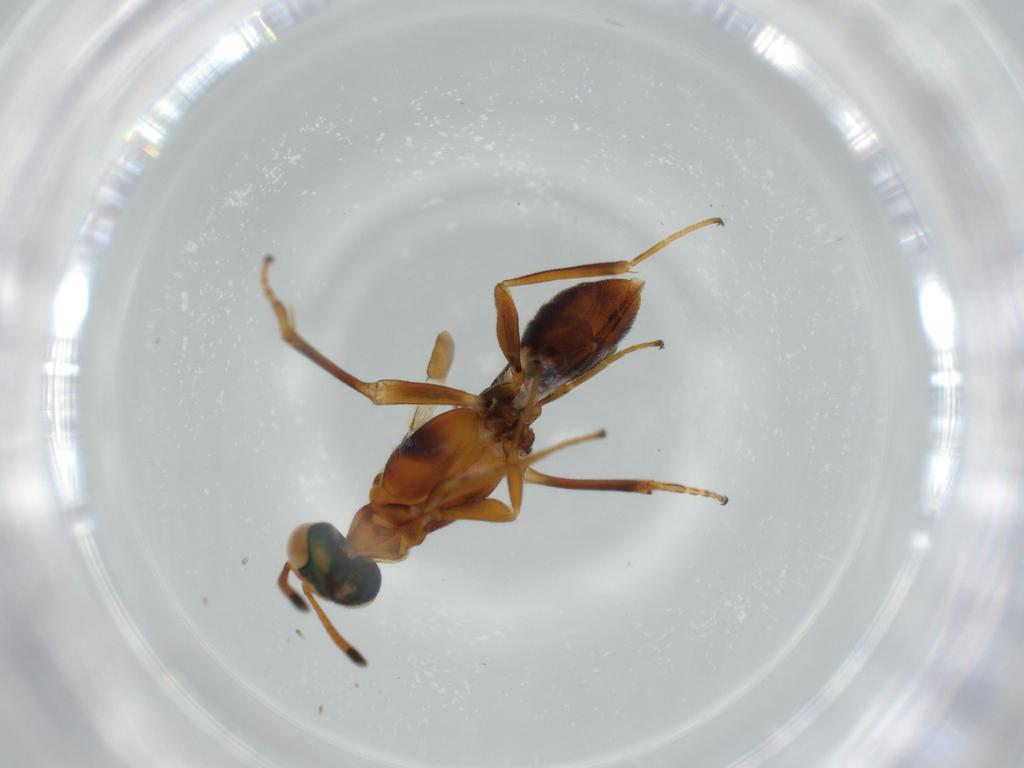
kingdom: Animalia
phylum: Arthropoda
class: Insecta
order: Hymenoptera
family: Eupelmidae
